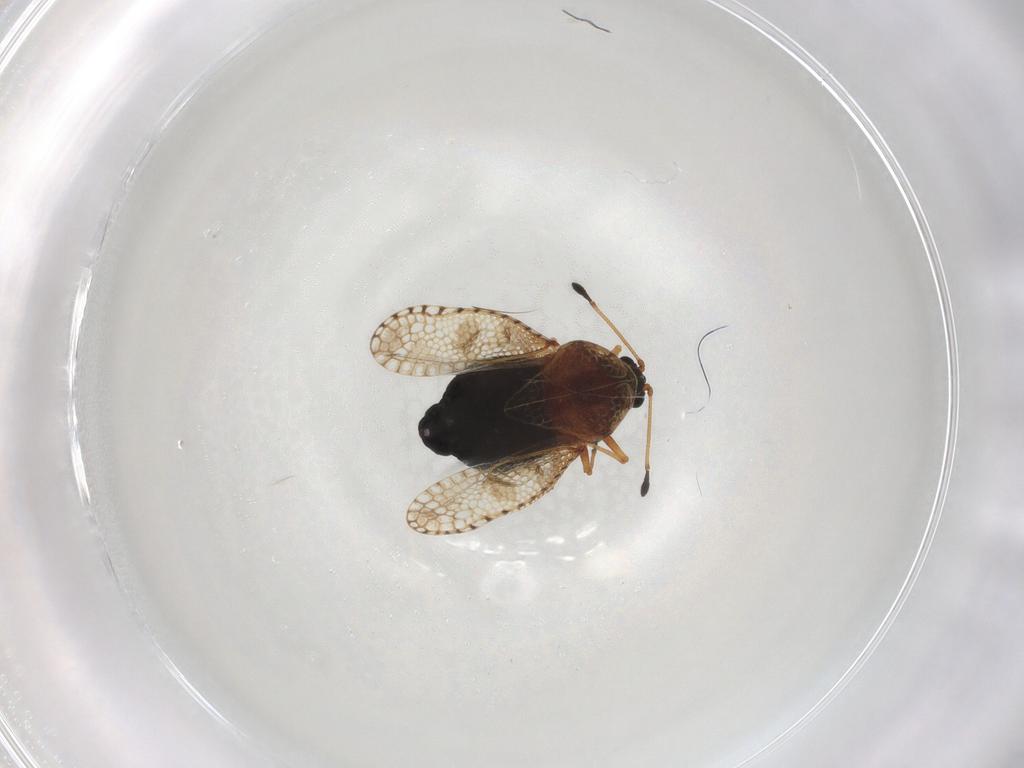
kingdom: Animalia
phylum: Arthropoda
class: Insecta
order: Hemiptera
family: Tingidae
